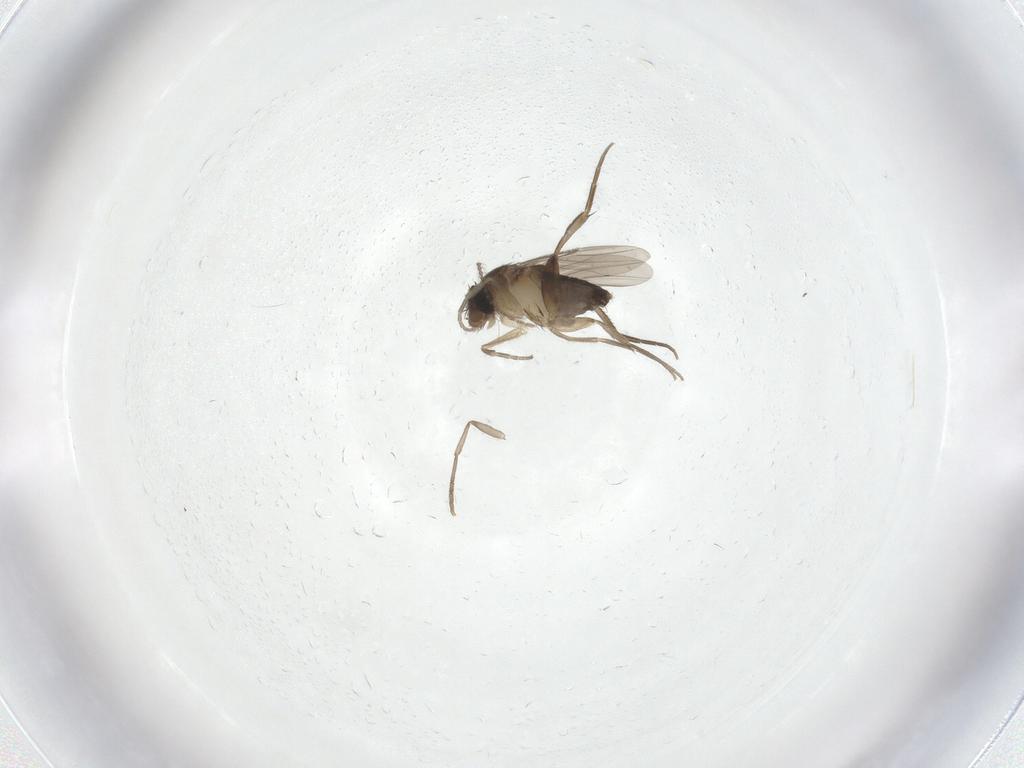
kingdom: Animalia
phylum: Arthropoda
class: Insecta
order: Diptera
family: Phoridae
